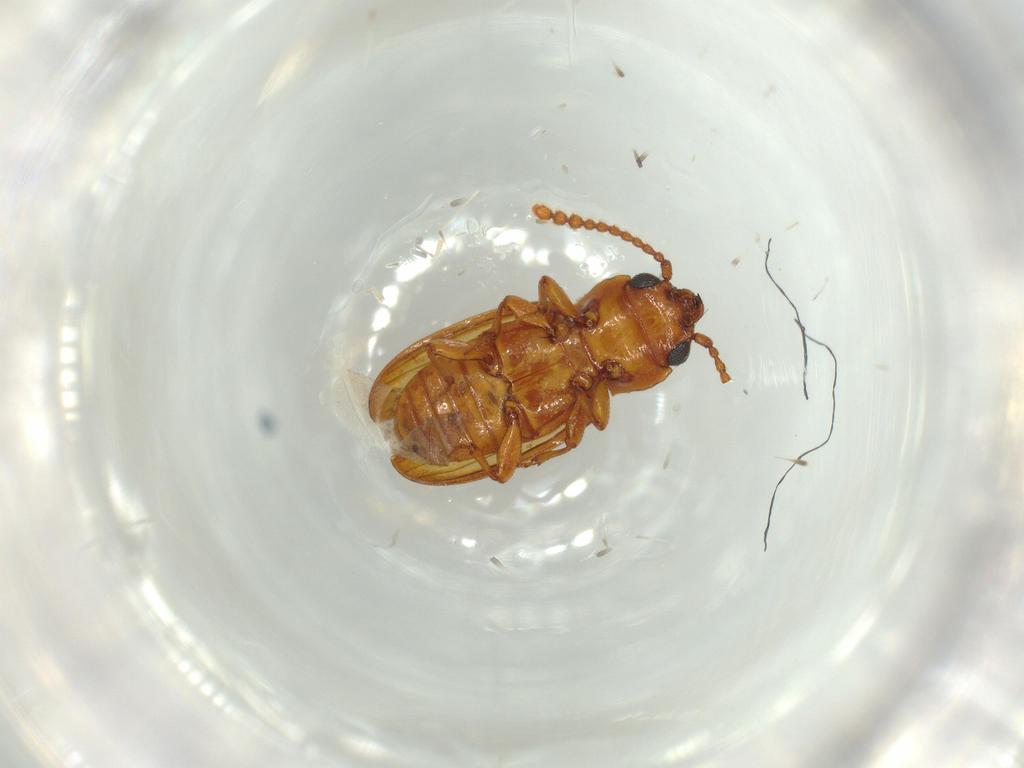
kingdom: Animalia
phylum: Arthropoda
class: Insecta
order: Coleoptera
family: Laemophloeidae
